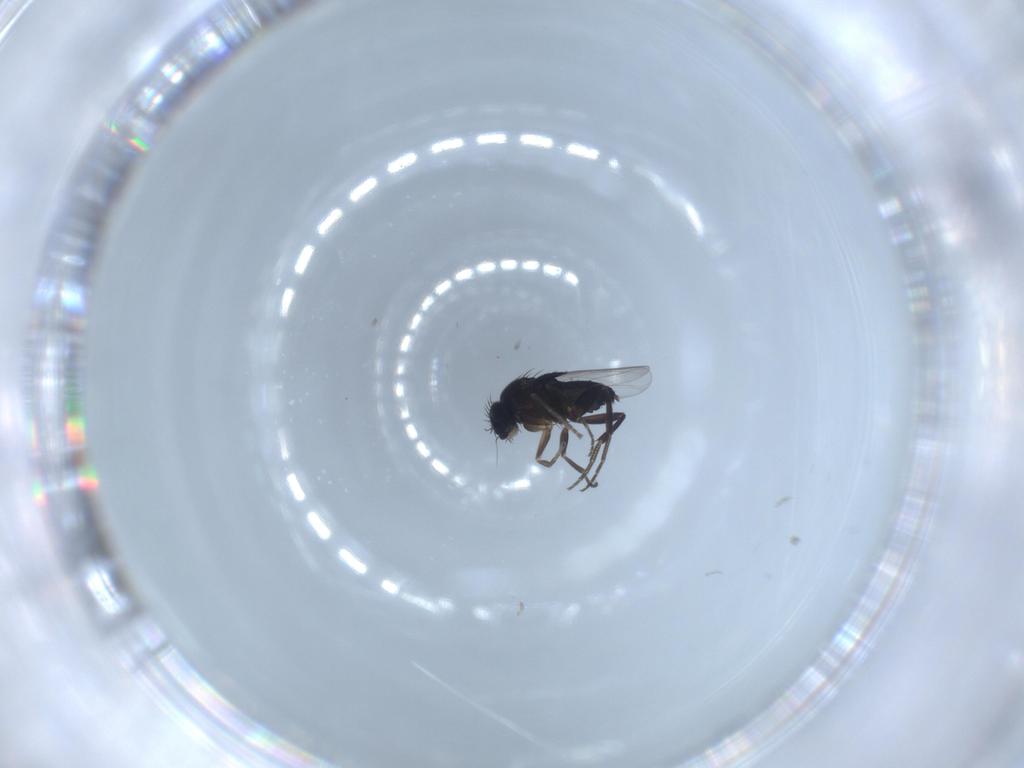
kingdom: Animalia
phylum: Arthropoda
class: Insecta
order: Diptera
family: Phoridae
